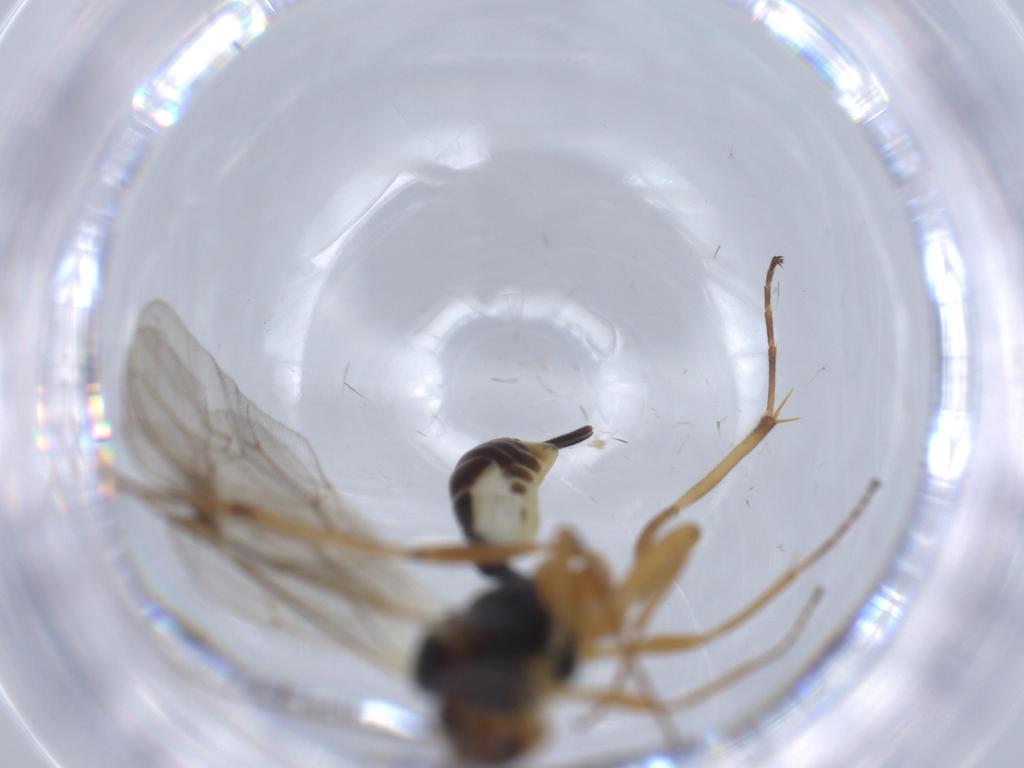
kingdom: Animalia
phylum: Arthropoda
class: Insecta
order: Hymenoptera
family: Ichneumonidae
